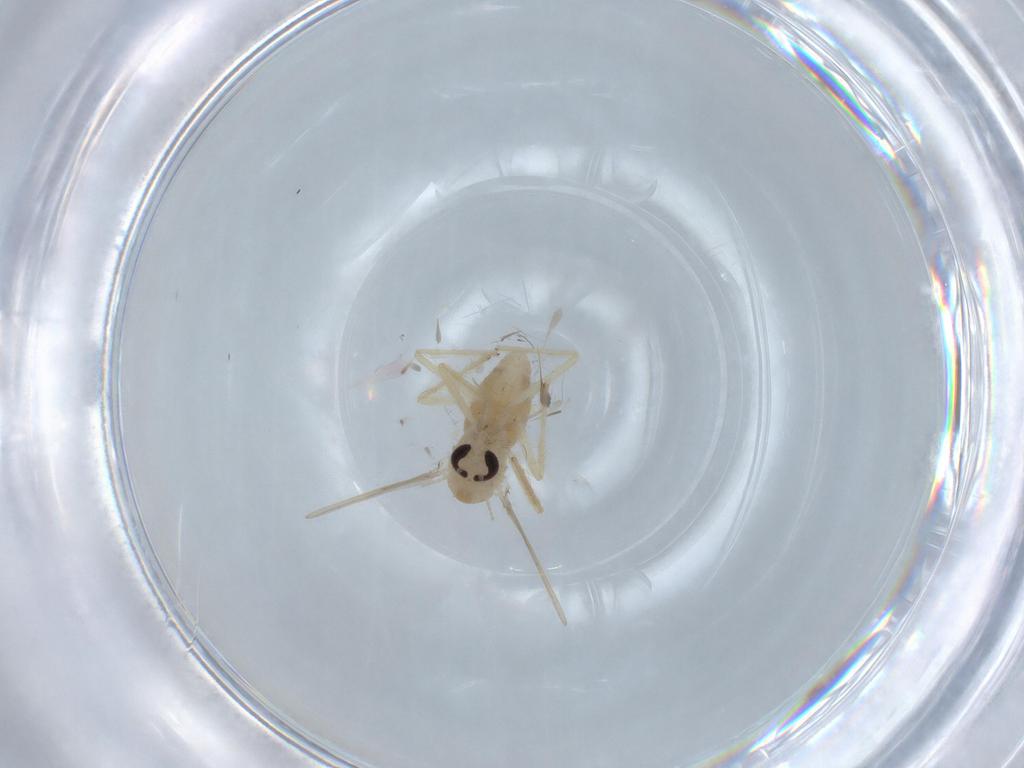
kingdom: Animalia
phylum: Arthropoda
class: Insecta
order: Diptera
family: Chironomidae
